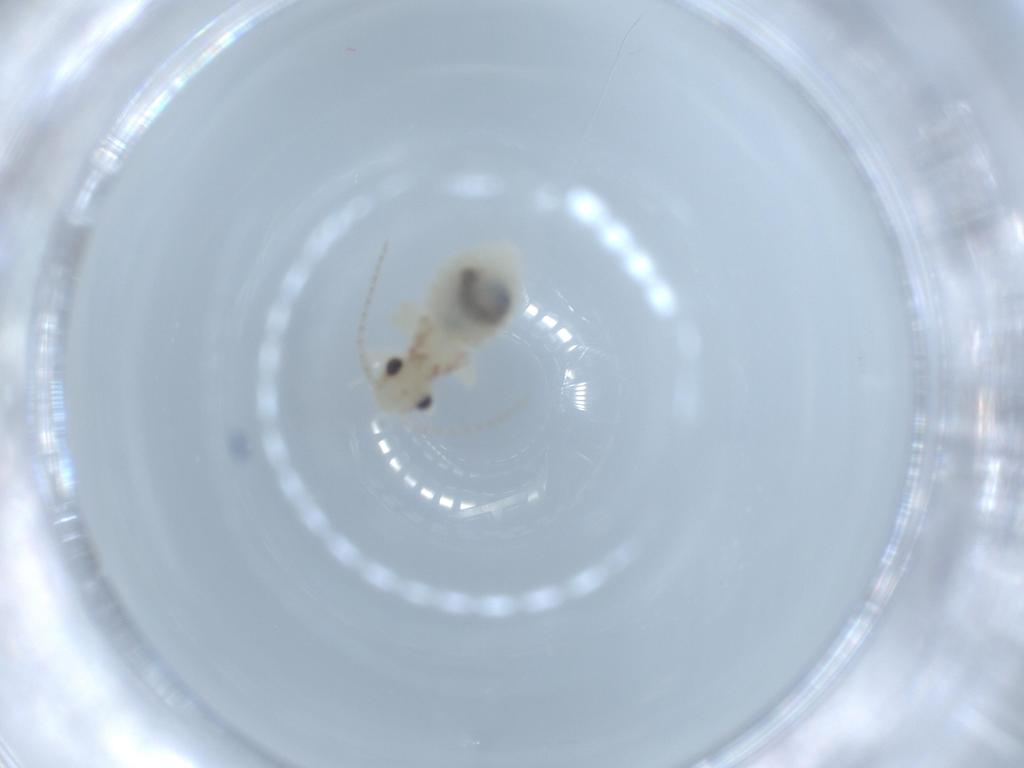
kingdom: Animalia
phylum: Arthropoda
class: Insecta
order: Psocodea
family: Amphipsocidae
